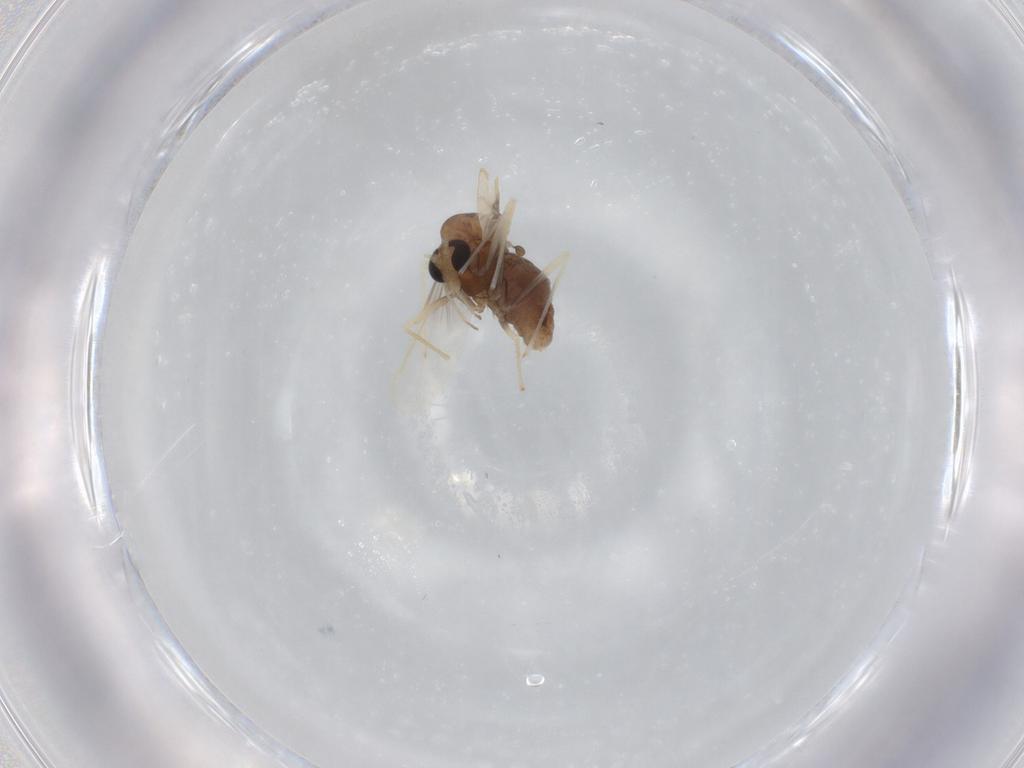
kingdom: Animalia
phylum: Arthropoda
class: Insecta
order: Diptera
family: Chironomidae
